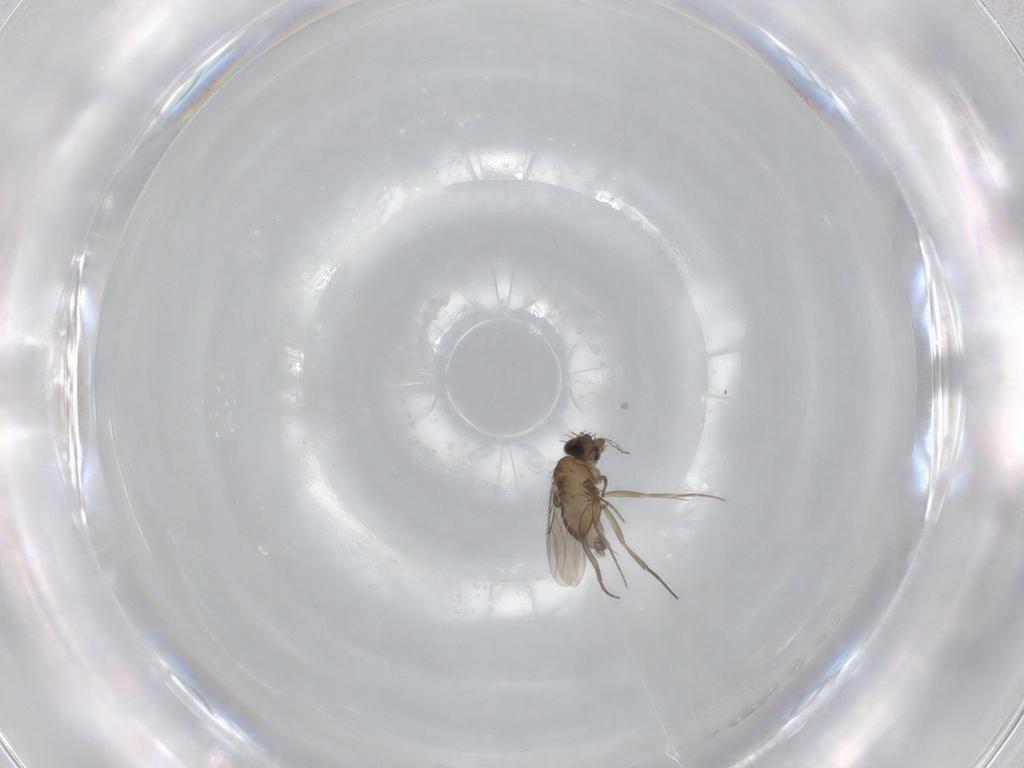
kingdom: Animalia
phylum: Arthropoda
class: Insecta
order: Diptera
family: Phoridae
